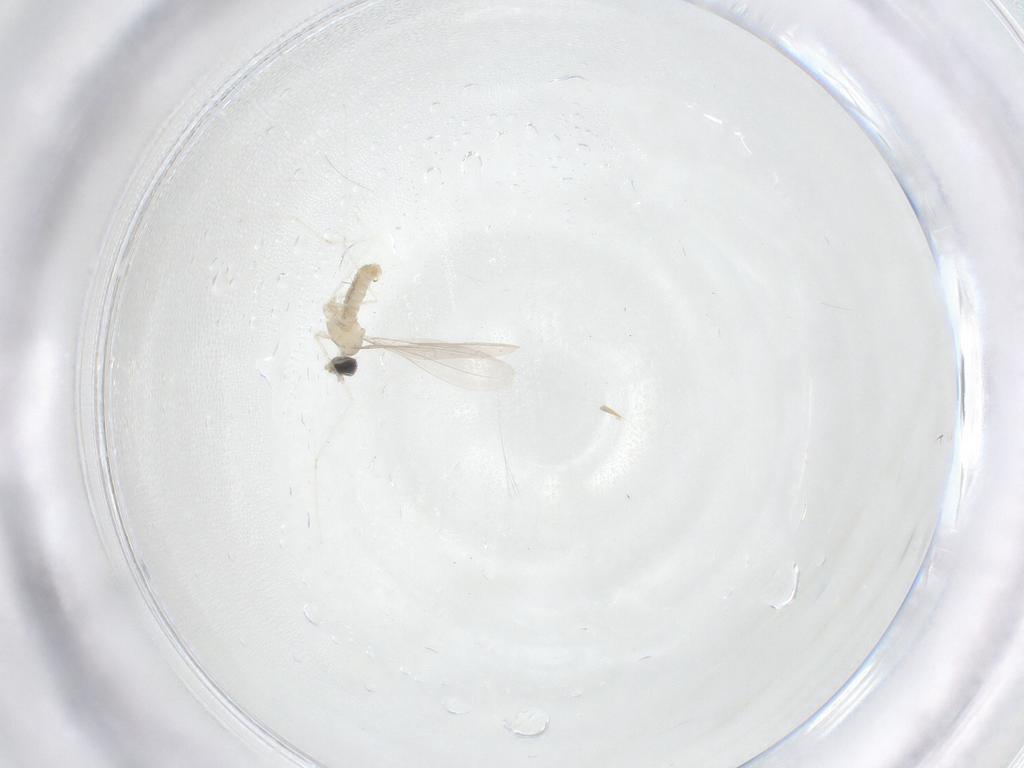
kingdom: Animalia
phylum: Arthropoda
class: Insecta
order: Diptera
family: Cecidomyiidae
